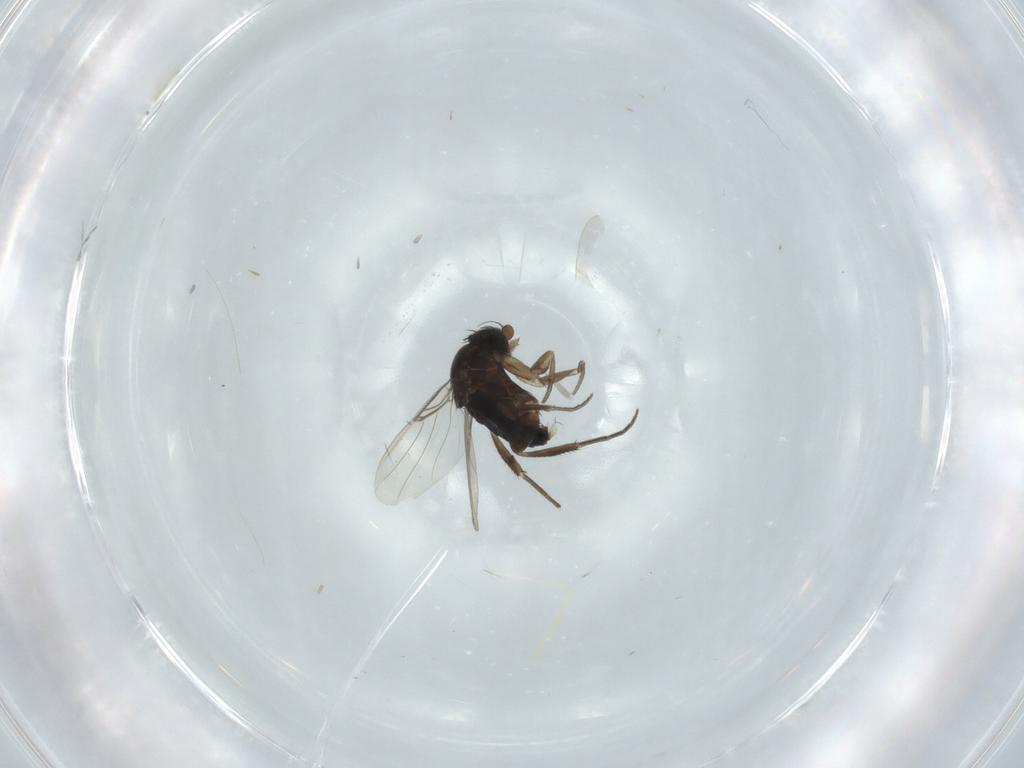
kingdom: Animalia
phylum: Arthropoda
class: Insecta
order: Diptera
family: Phoridae
